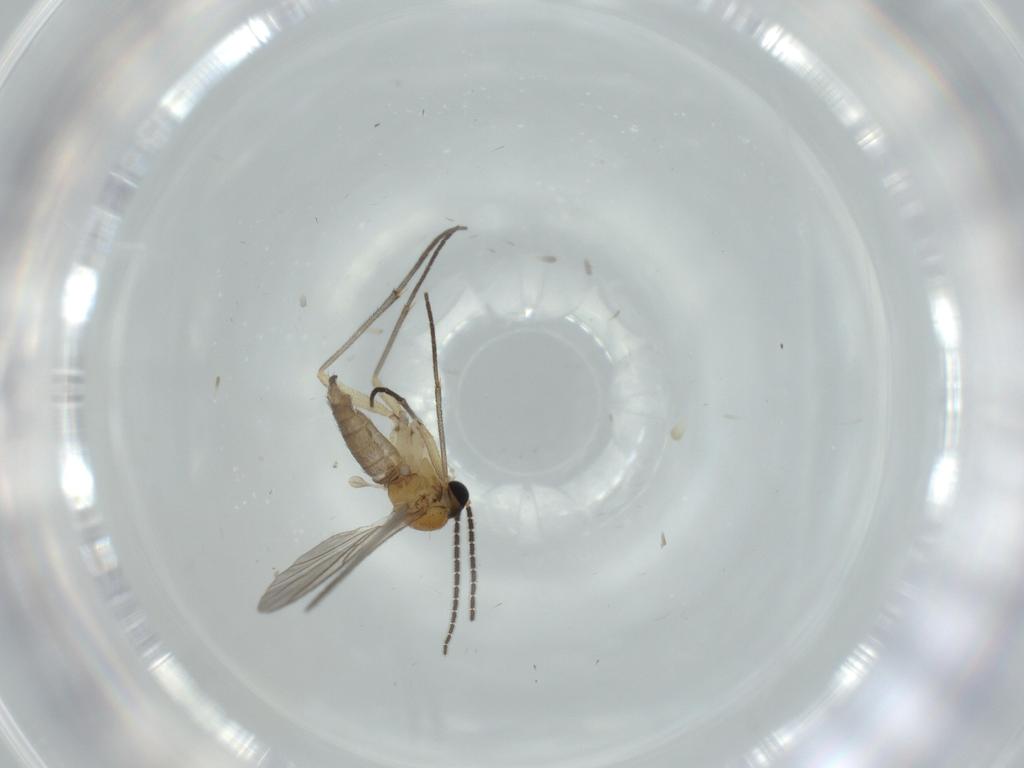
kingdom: Animalia
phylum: Arthropoda
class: Insecta
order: Diptera
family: Sciaridae
